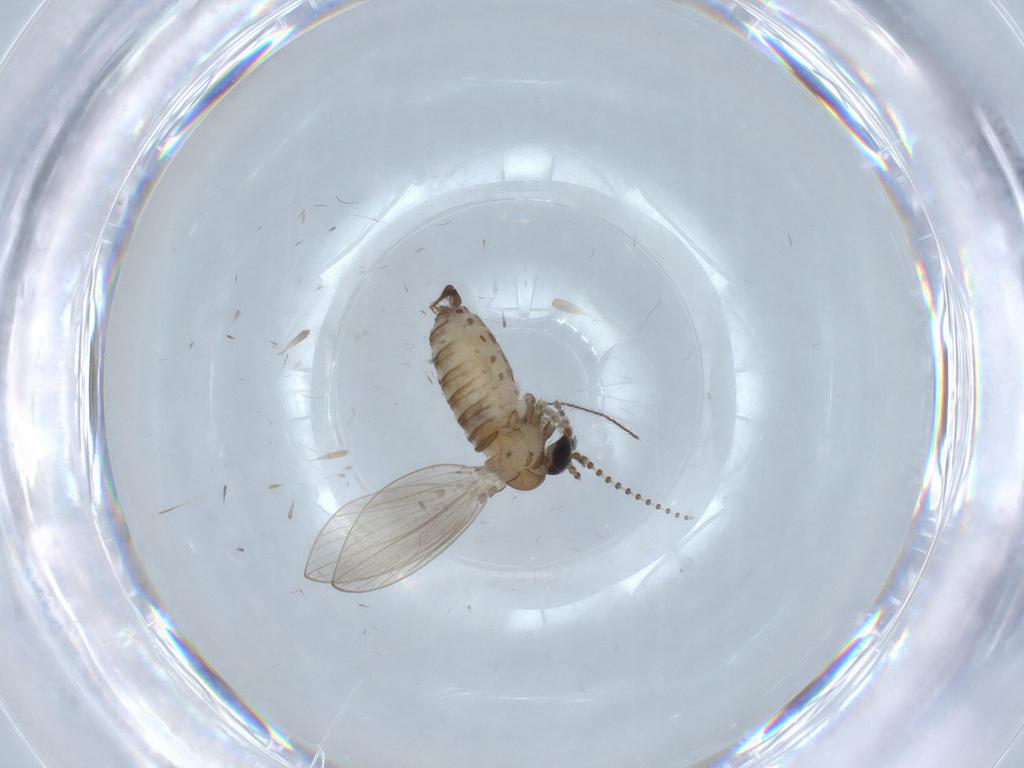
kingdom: Animalia
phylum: Arthropoda
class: Insecta
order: Diptera
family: Psychodidae
